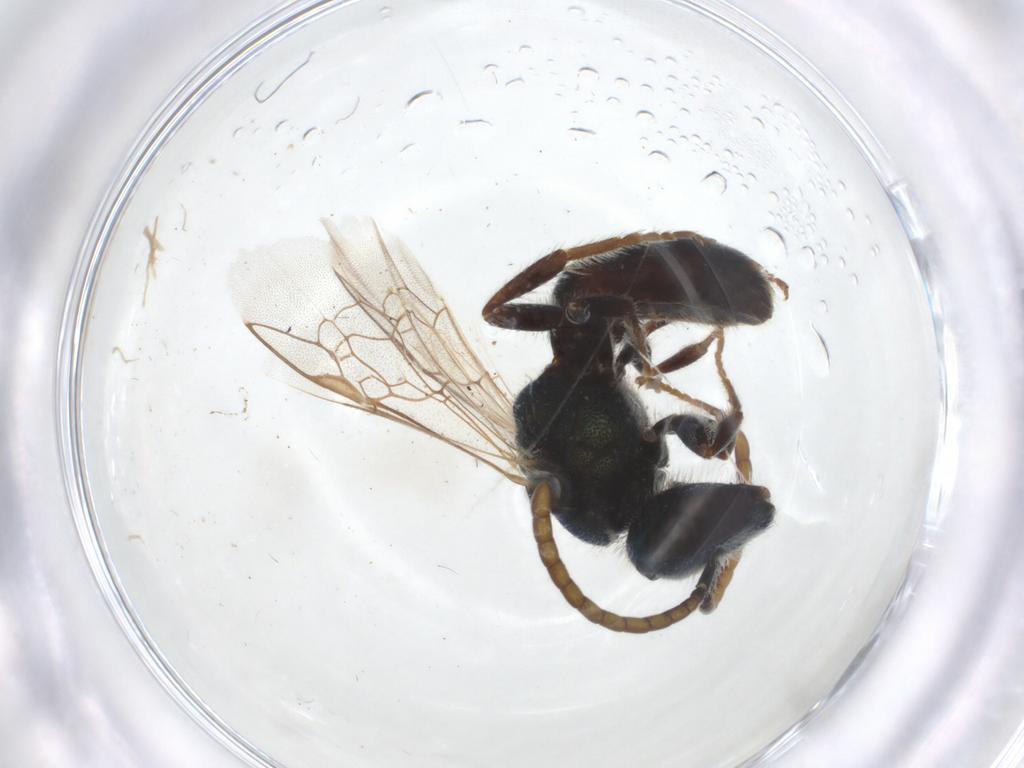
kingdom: Animalia
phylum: Arthropoda
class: Insecta
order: Hymenoptera
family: Halictidae
